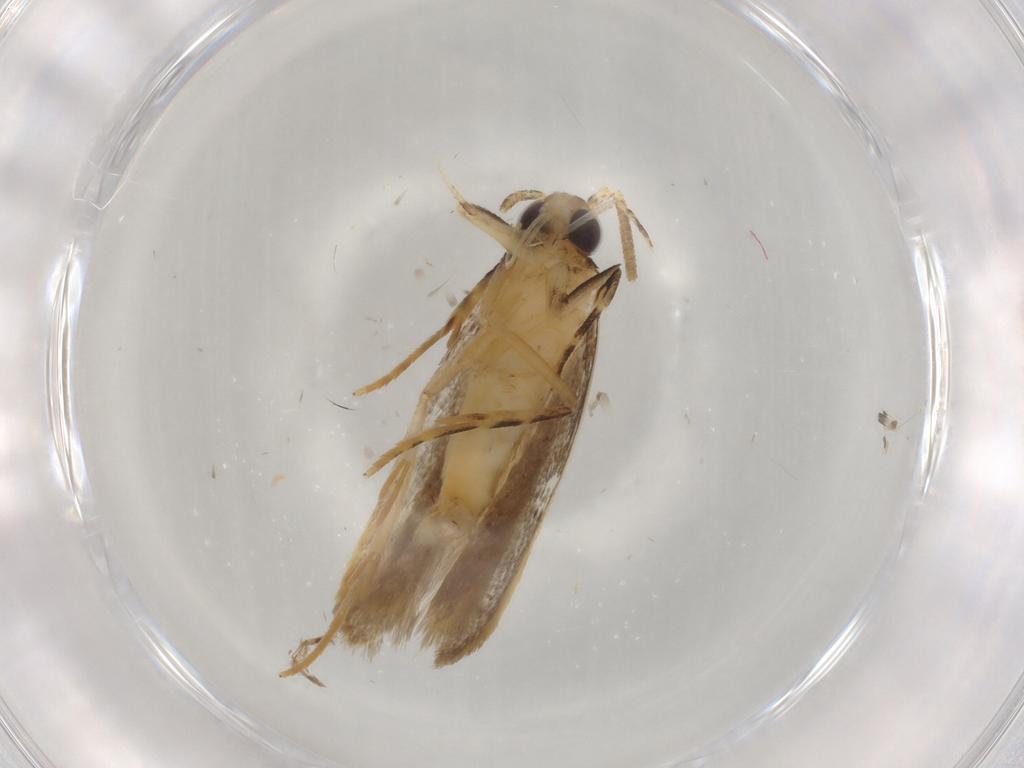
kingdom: Animalia
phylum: Arthropoda
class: Insecta
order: Lepidoptera
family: Autostichidae
